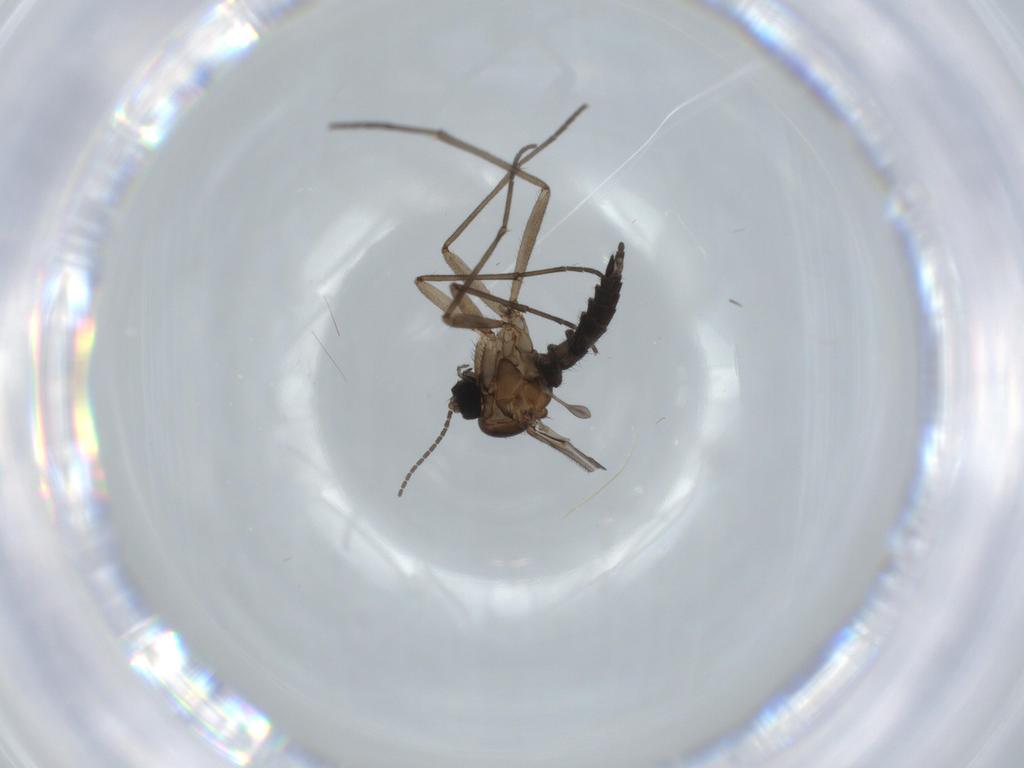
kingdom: Animalia
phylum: Arthropoda
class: Insecta
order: Diptera
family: Sciaridae
